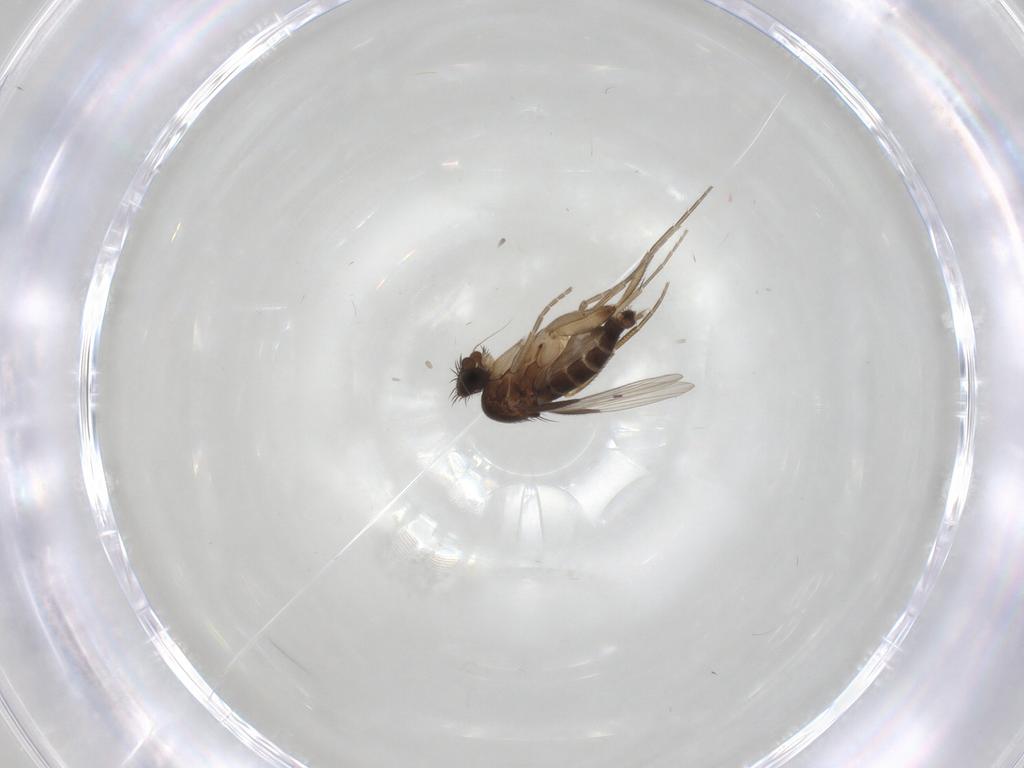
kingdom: Animalia
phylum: Arthropoda
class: Insecta
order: Diptera
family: Phoridae
